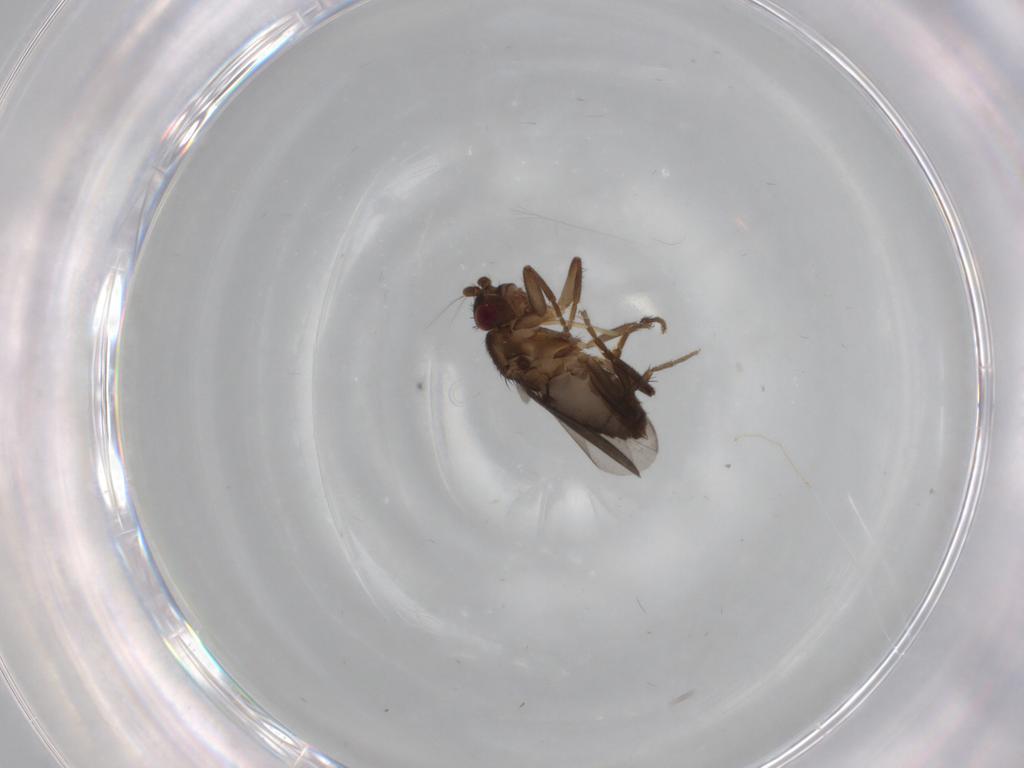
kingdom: Animalia
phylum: Arthropoda
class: Insecta
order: Diptera
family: Sphaeroceridae
